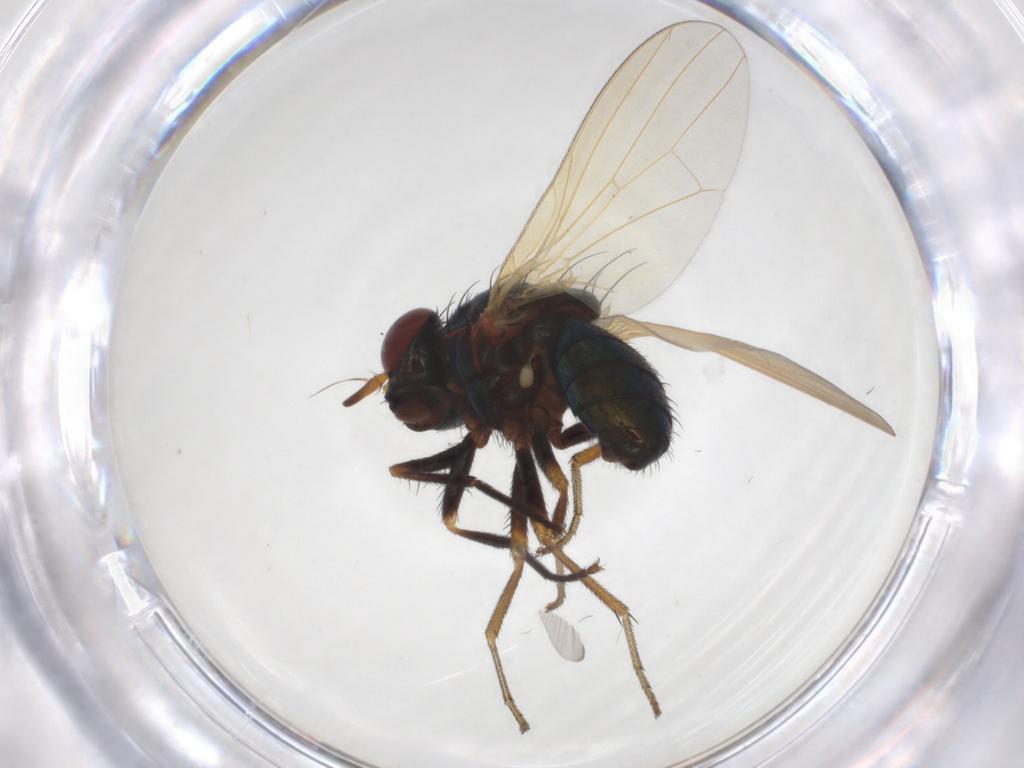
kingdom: Animalia
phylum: Arthropoda
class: Insecta
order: Diptera
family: Lauxaniidae
